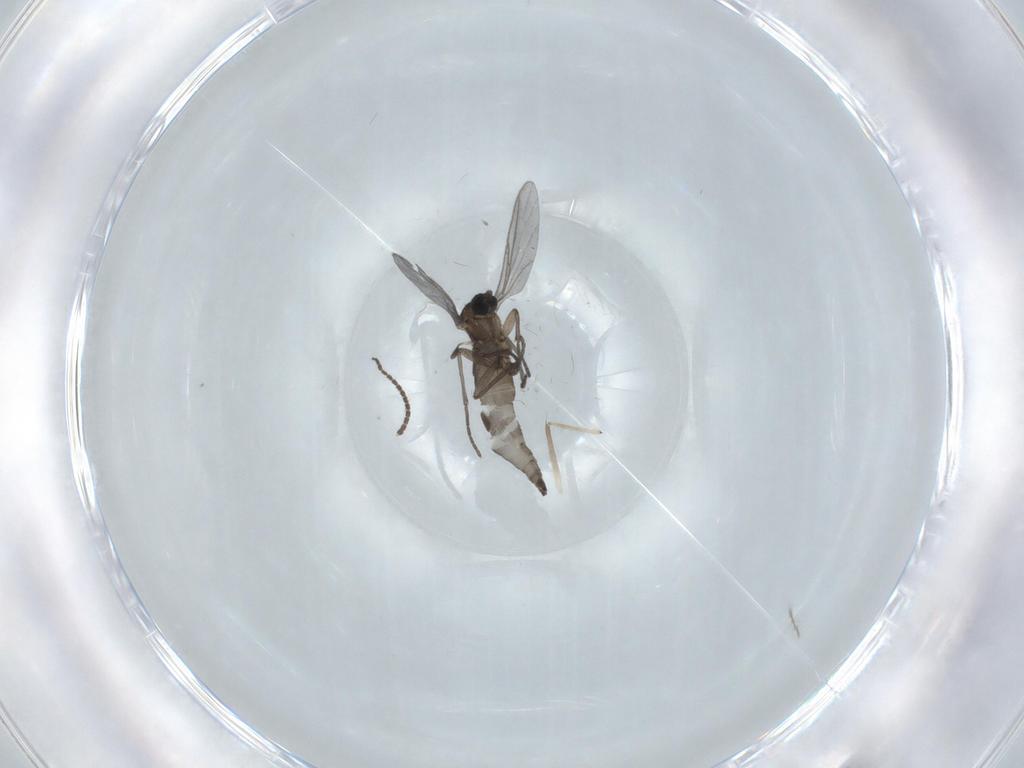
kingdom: Animalia
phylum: Arthropoda
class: Insecta
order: Diptera
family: Sciaridae
